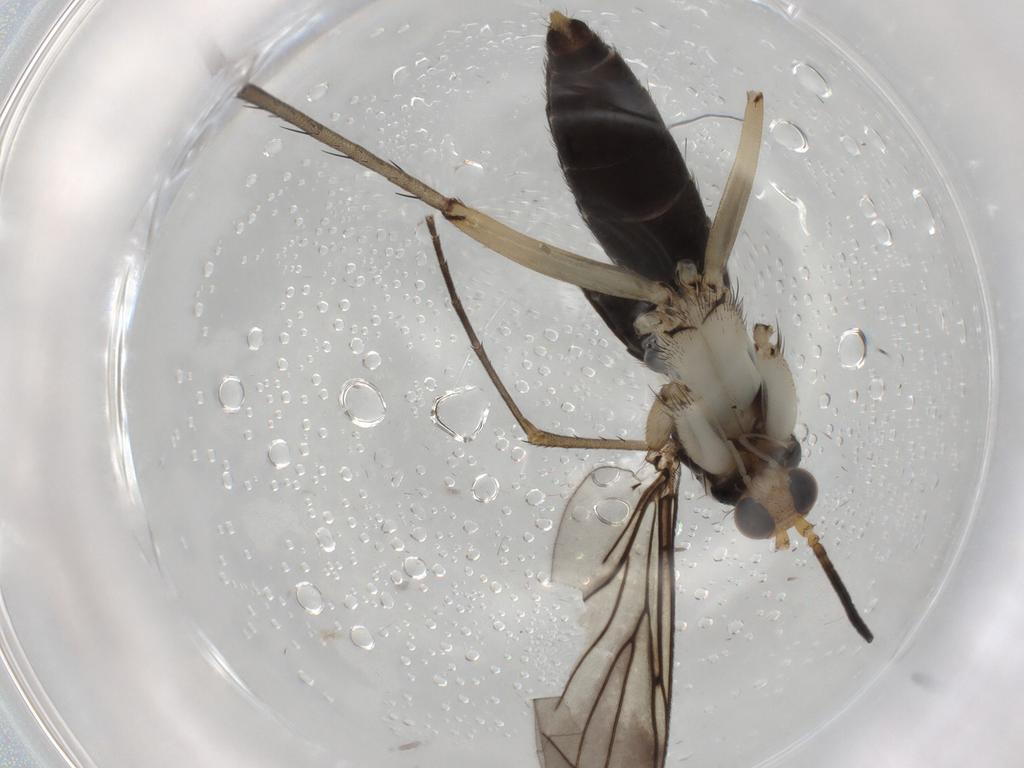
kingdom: Animalia
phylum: Arthropoda
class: Insecta
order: Diptera
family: Mycetophilidae
